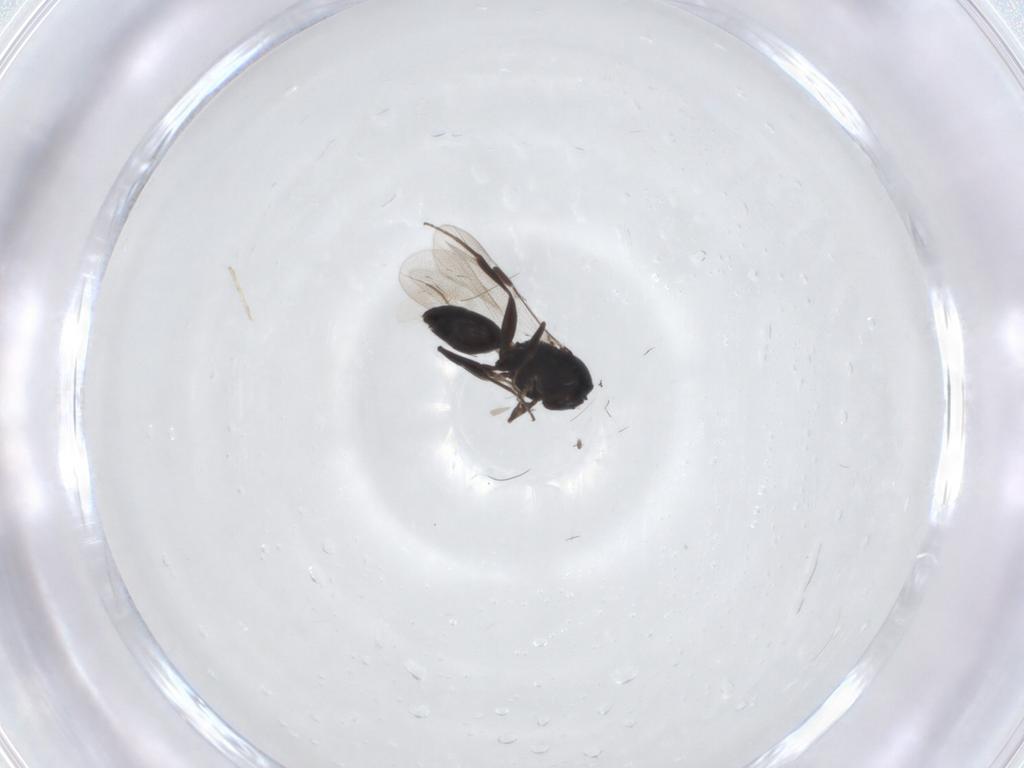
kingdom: Animalia
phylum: Arthropoda
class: Insecta
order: Hymenoptera
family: Megaspilidae
